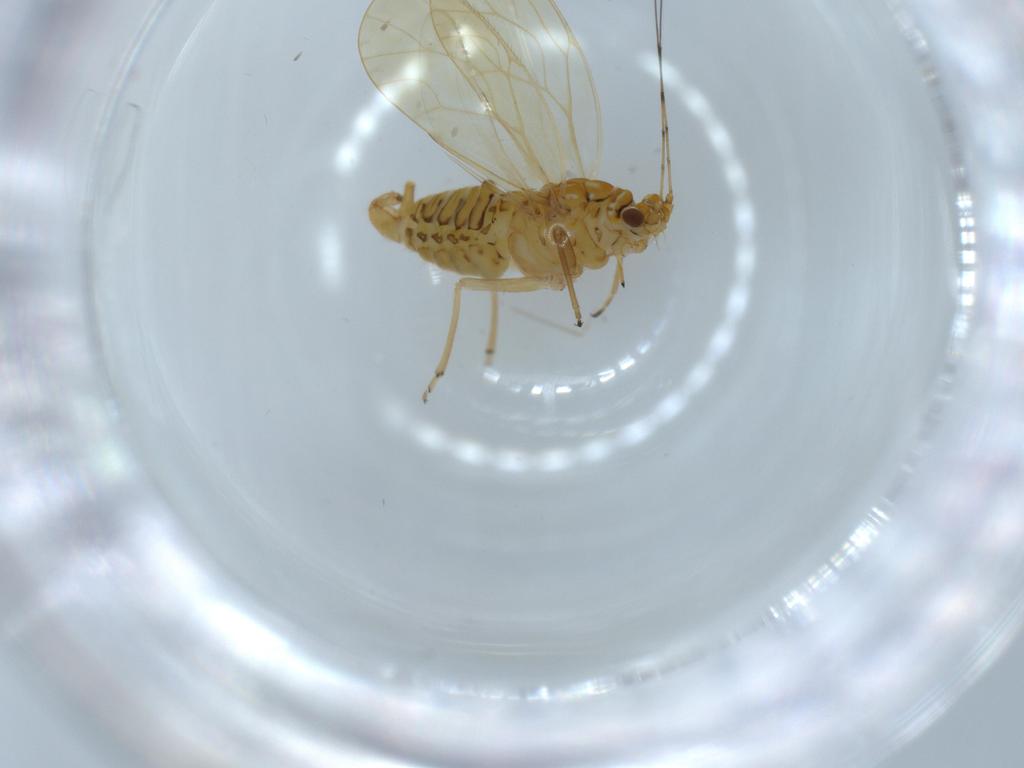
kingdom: Animalia
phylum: Arthropoda
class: Insecta
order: Hemiptera
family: Psyllidae
